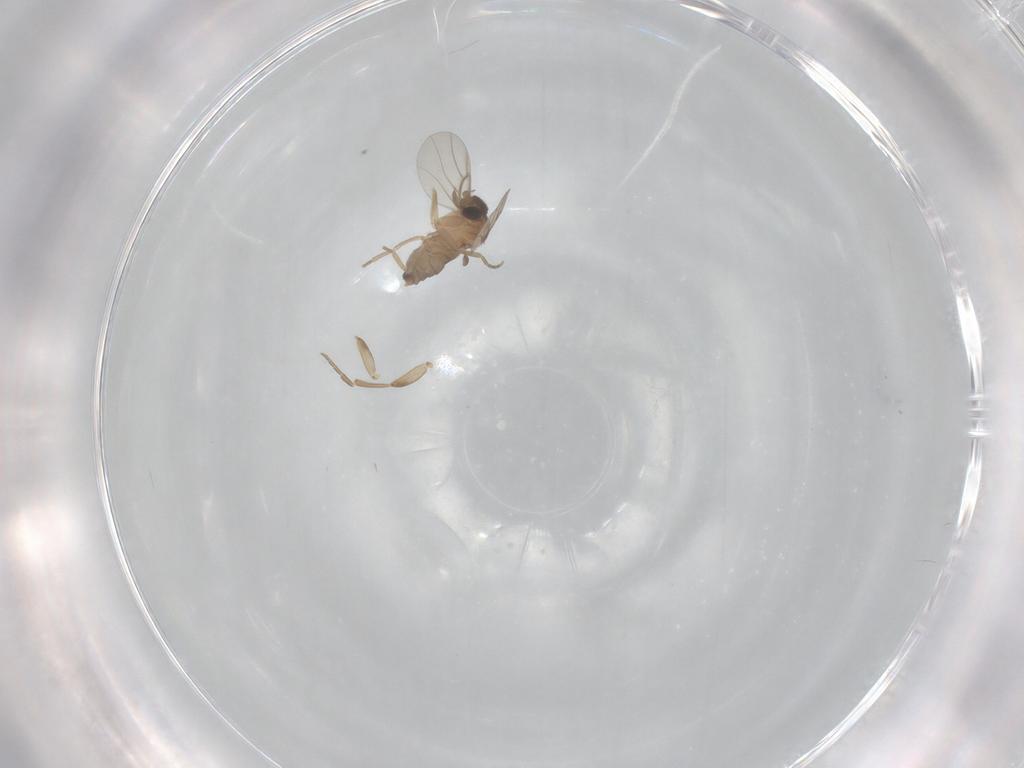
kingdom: Animalia
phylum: Arthropoda
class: Insecta
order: Diptera
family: Phoridae
